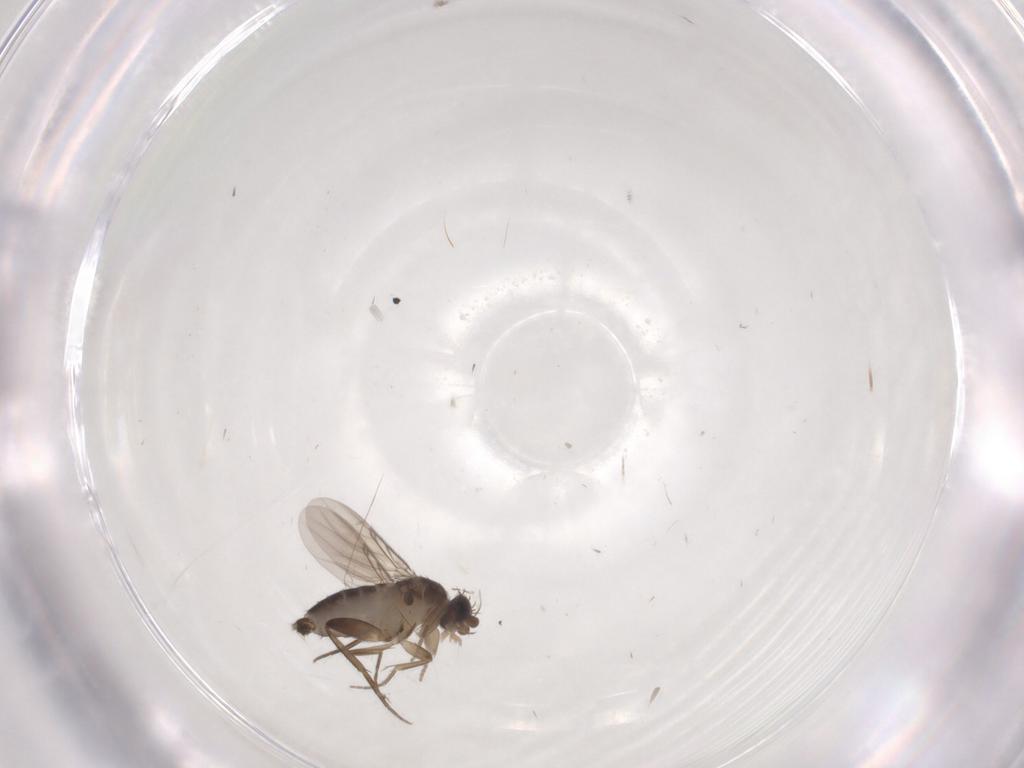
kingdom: Animalia
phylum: Arthropoda
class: Insecta
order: Diptera
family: Phoridae
